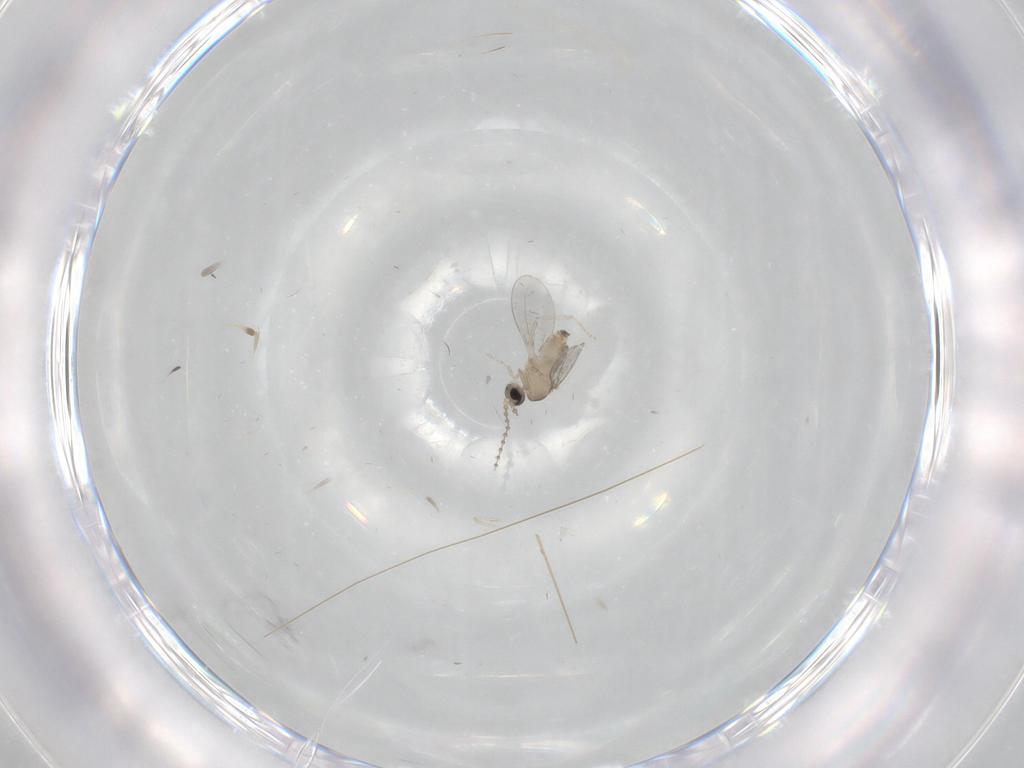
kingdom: Animalia
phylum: Arthropoda
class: Insecta
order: Diptera
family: Cecidomyiidae
